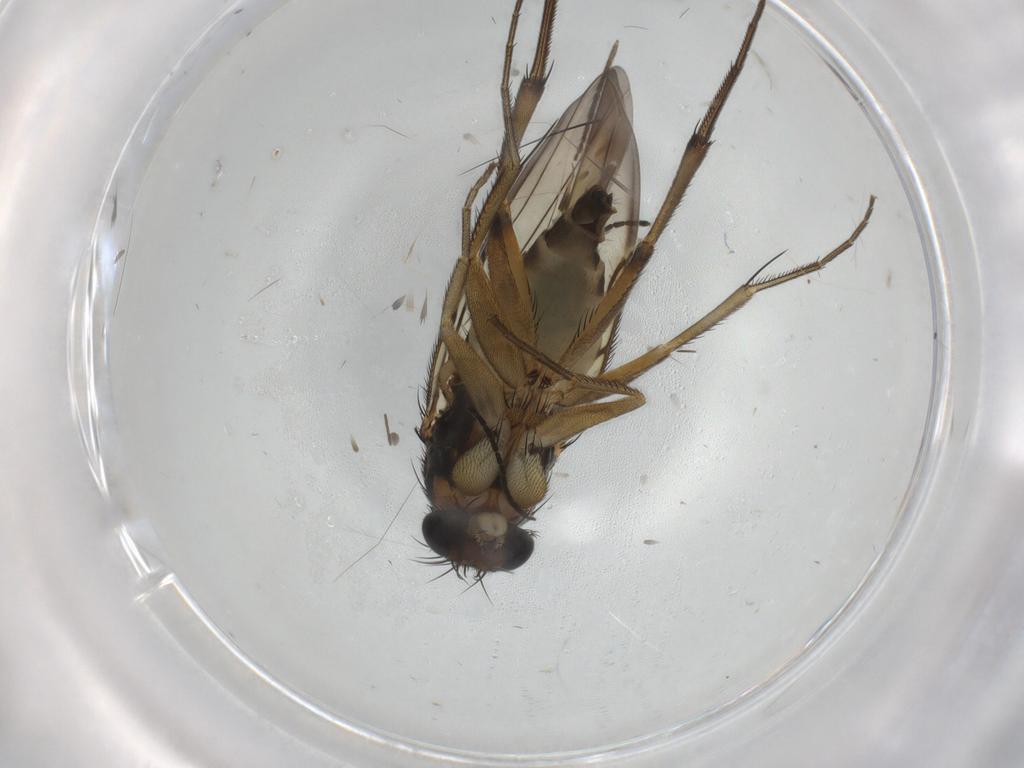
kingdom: Animalia
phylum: Arthropoda
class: Insecta
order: Diptera
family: Phoridae
